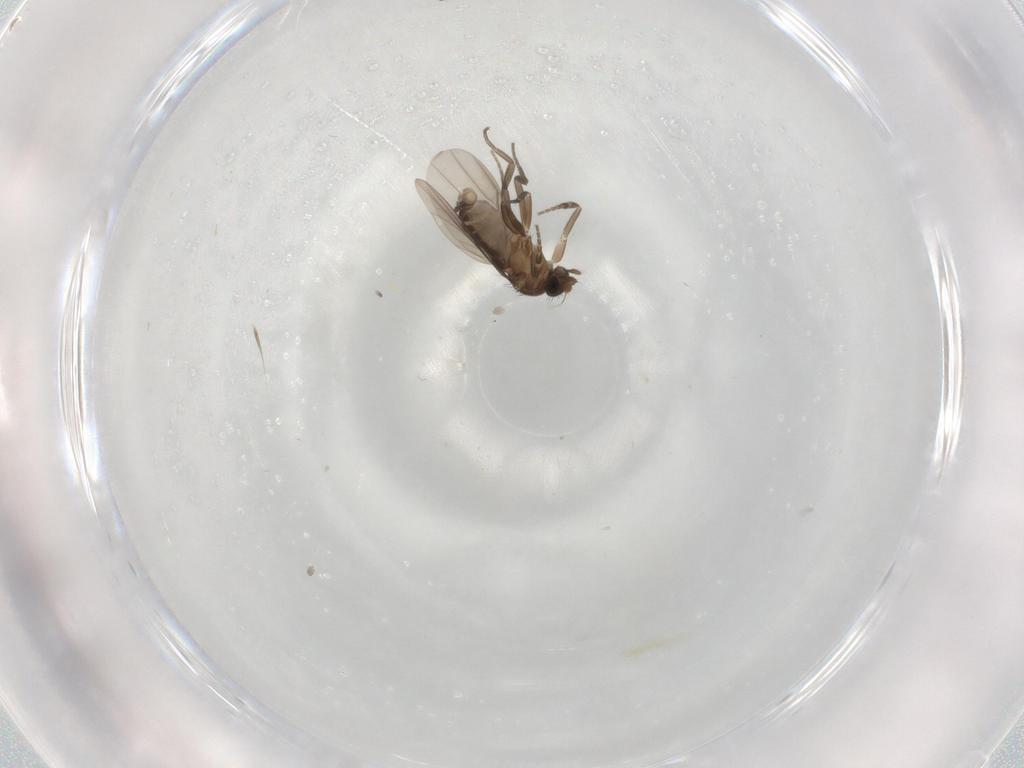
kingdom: Animalia
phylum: Arthropoda
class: Insecta
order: Diptera
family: Phoridae
